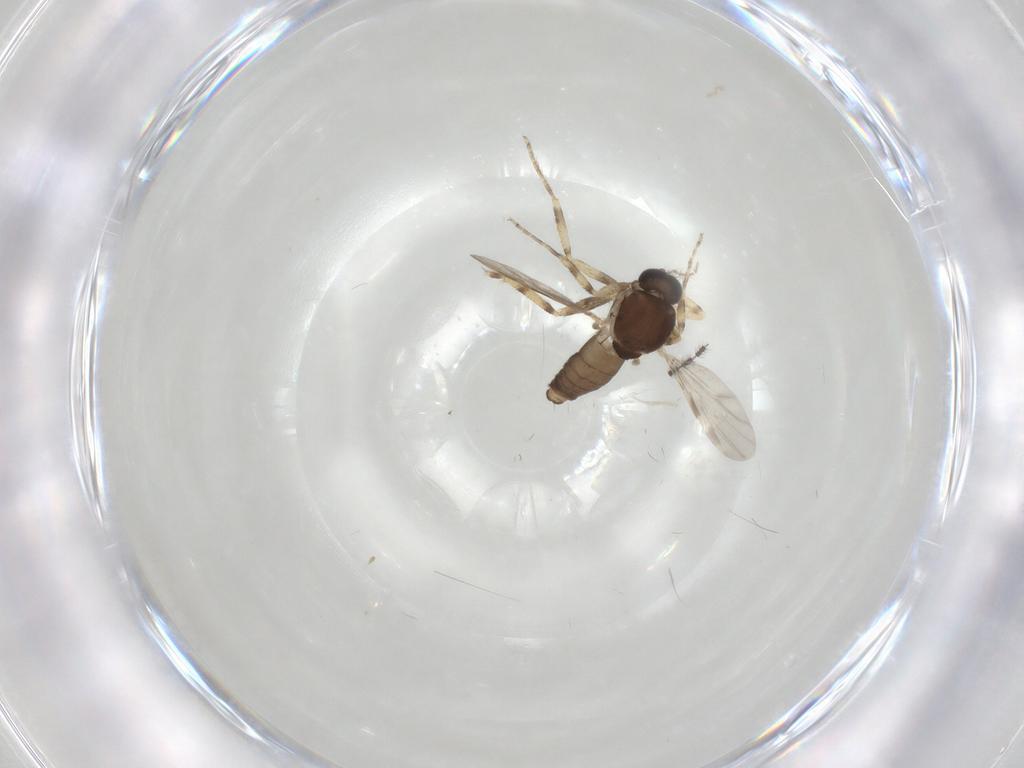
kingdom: Animalia
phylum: Arthropoda
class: Insecta
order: Diptera
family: Ceratopogonidae
